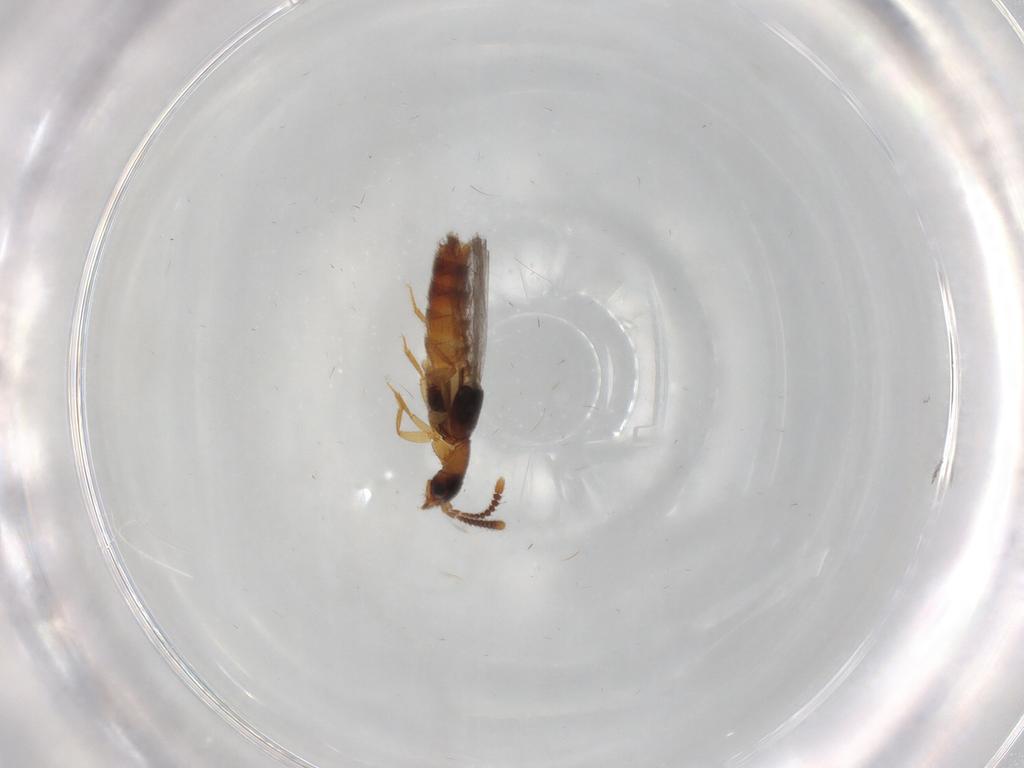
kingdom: Animalia
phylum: Arthropoda
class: Insecta
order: Coleoptera
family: Staphylinidae
